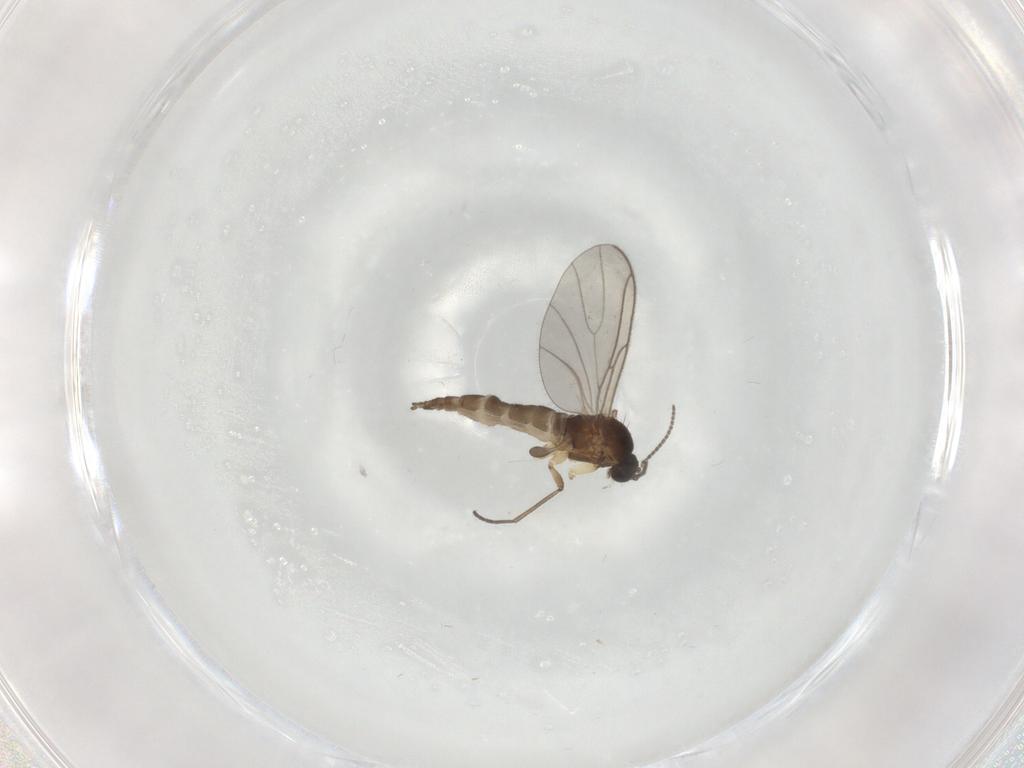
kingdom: Animalia
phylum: Arthropoda
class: Insecta
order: Diptera
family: Sciaridae
